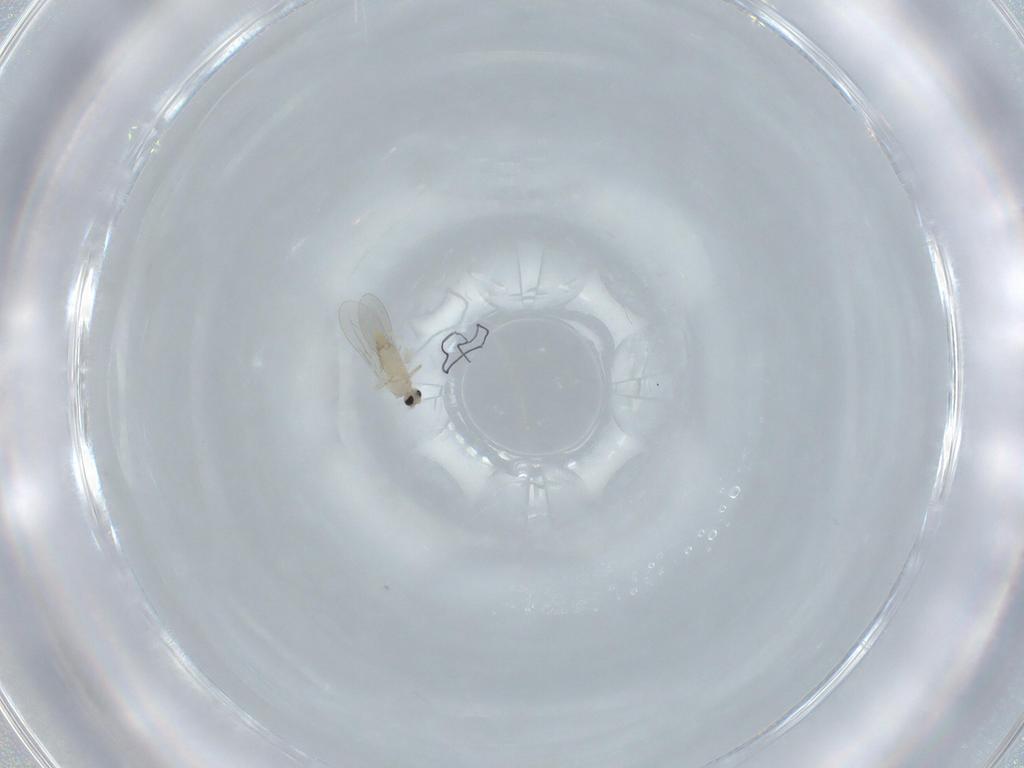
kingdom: Animalia
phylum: Arthropoda
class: Insecta
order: Diptera
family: Cecidomyiidae
